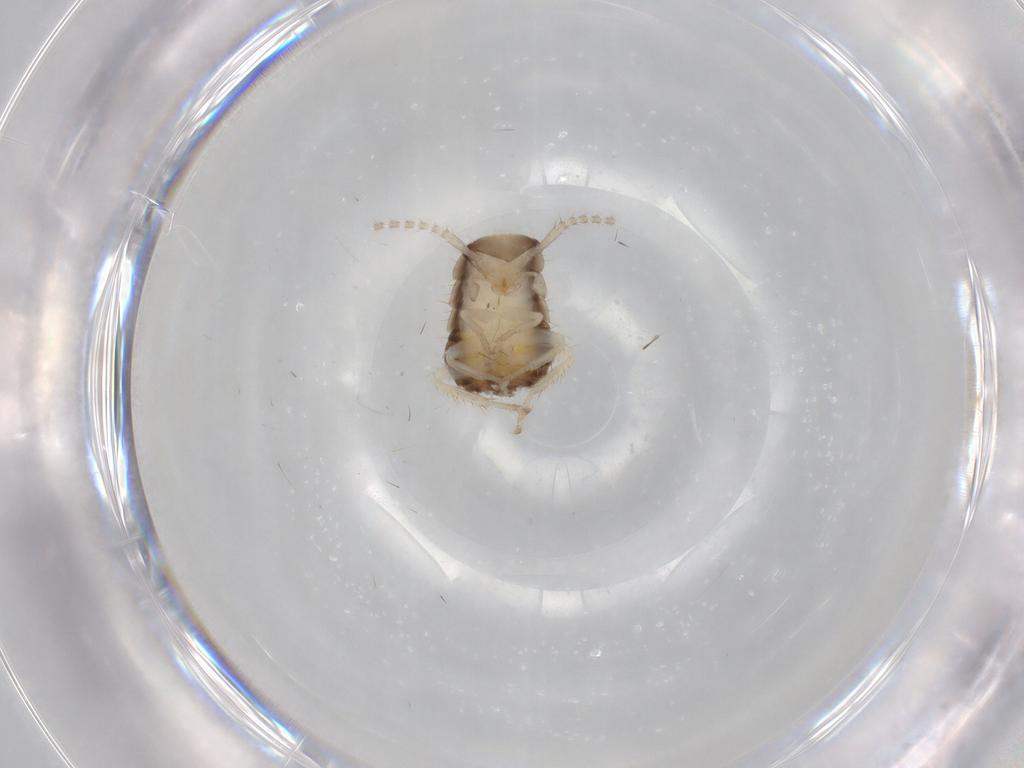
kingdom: Animalia
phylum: Arthropoda
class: Insecta
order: Blattodea
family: Ectobiidae
